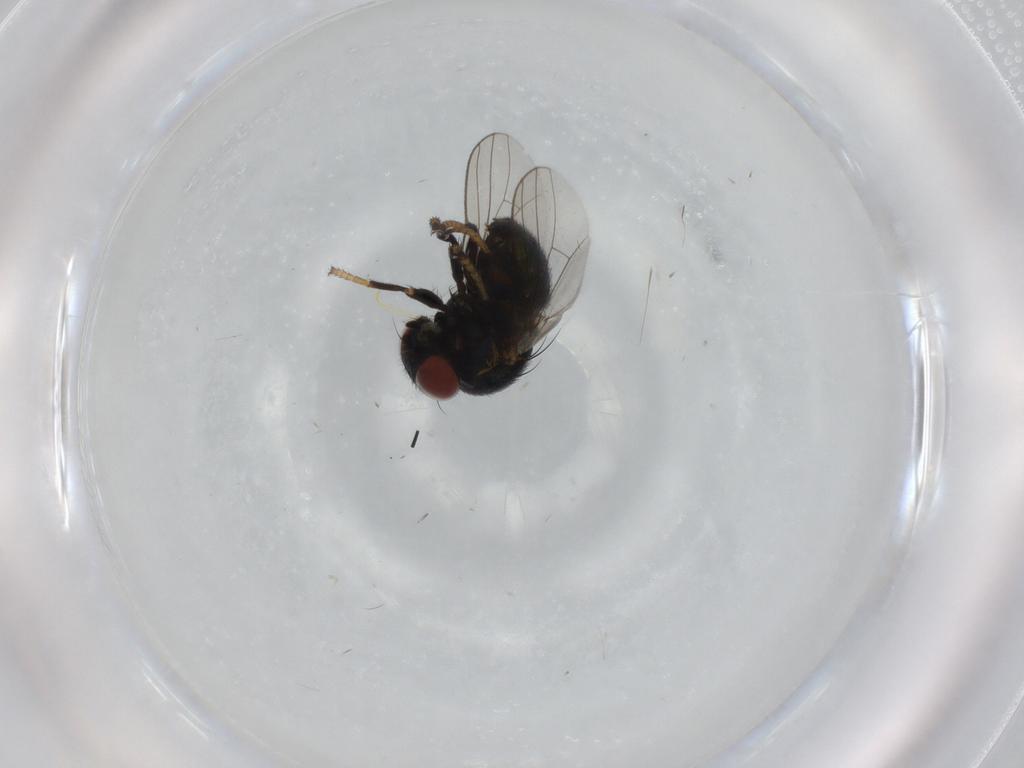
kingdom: Animalia
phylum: Arthropoda
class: Insecta
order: Diptera
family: Chamaemyiidae
